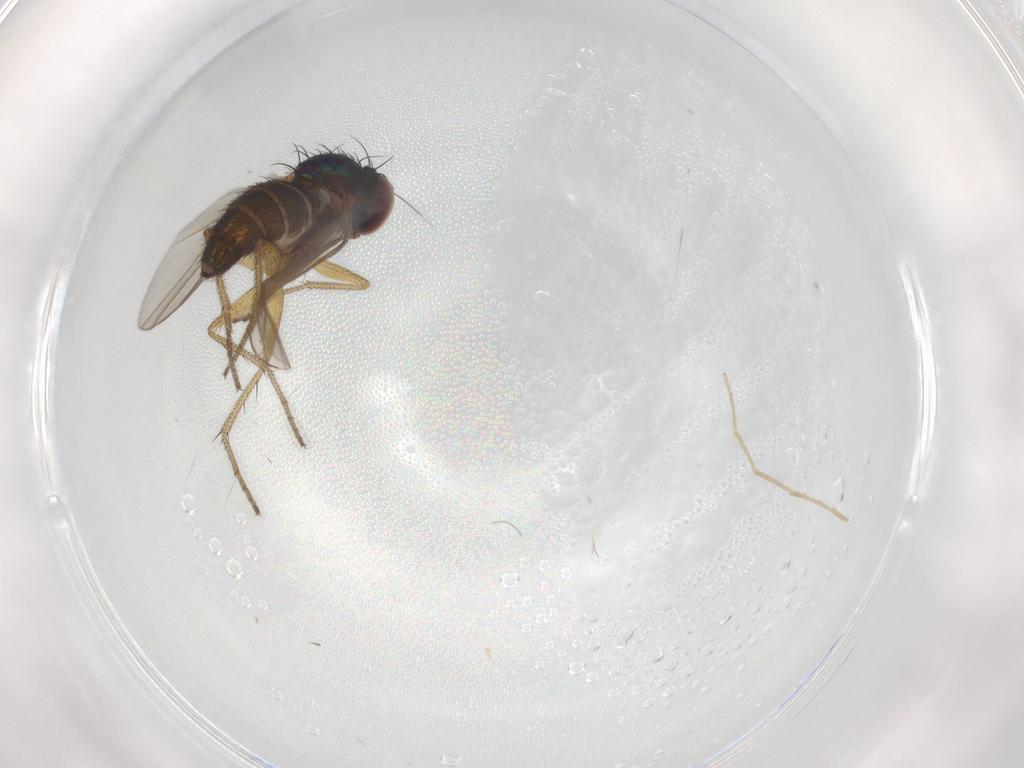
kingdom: Animalia
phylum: Arthropoda
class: Insecta
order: Diptera
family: Chironomidae
